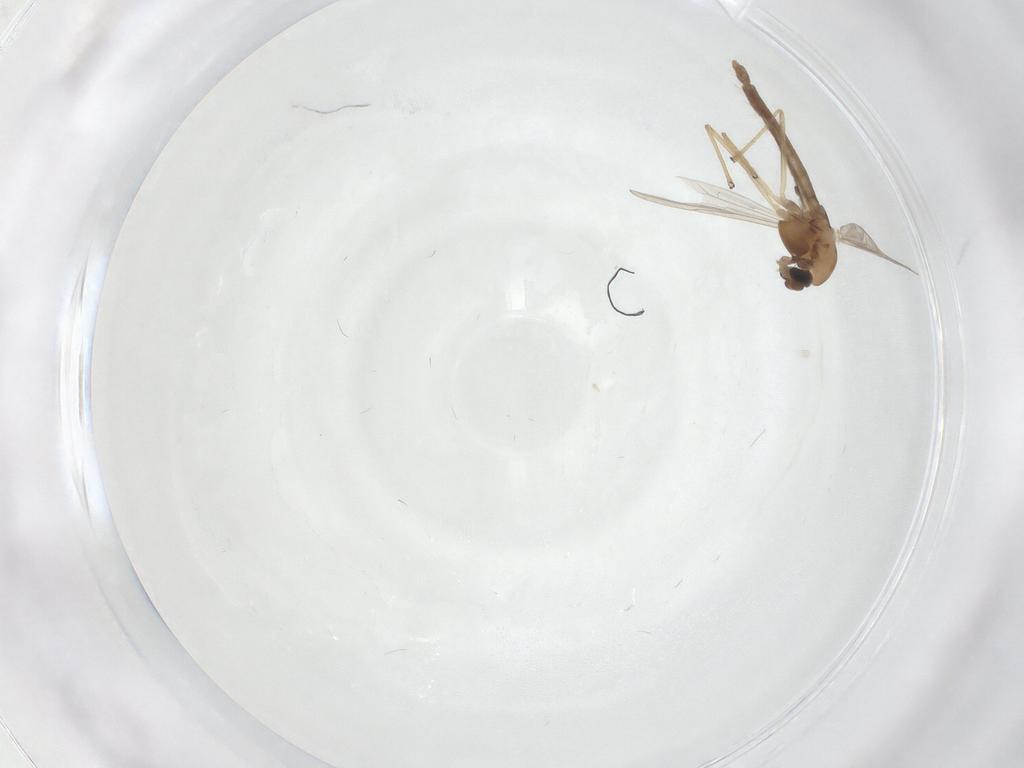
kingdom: Animalia
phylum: Arthropoda
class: Insecta
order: Diptera
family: Chironomidae
